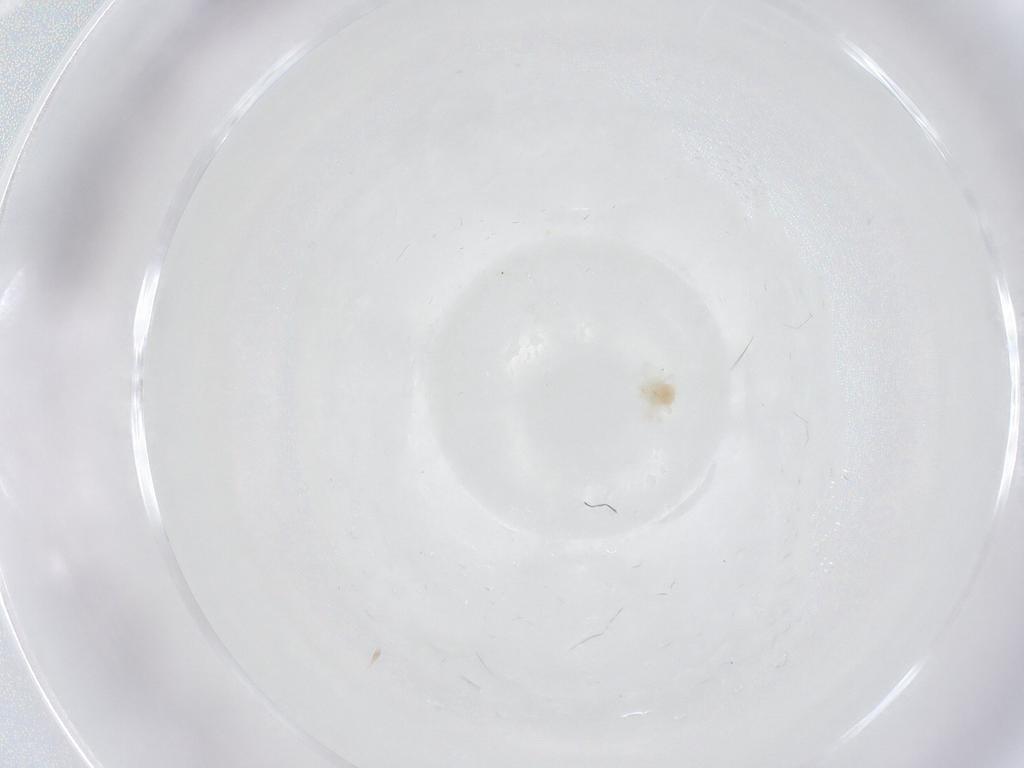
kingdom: Animalia
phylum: Arthropoda
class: Arachnida
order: Trombidiformes
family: Anystidae
